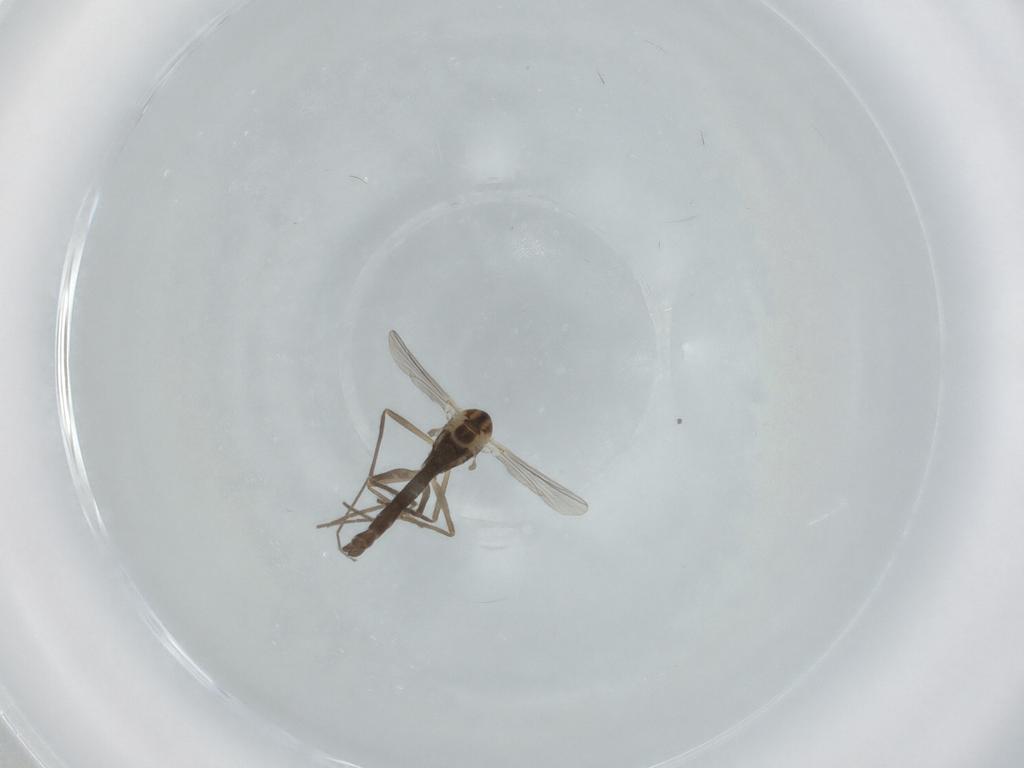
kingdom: Animalia
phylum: Arthropoda
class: Insecta
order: Diptera
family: Chironomidae
